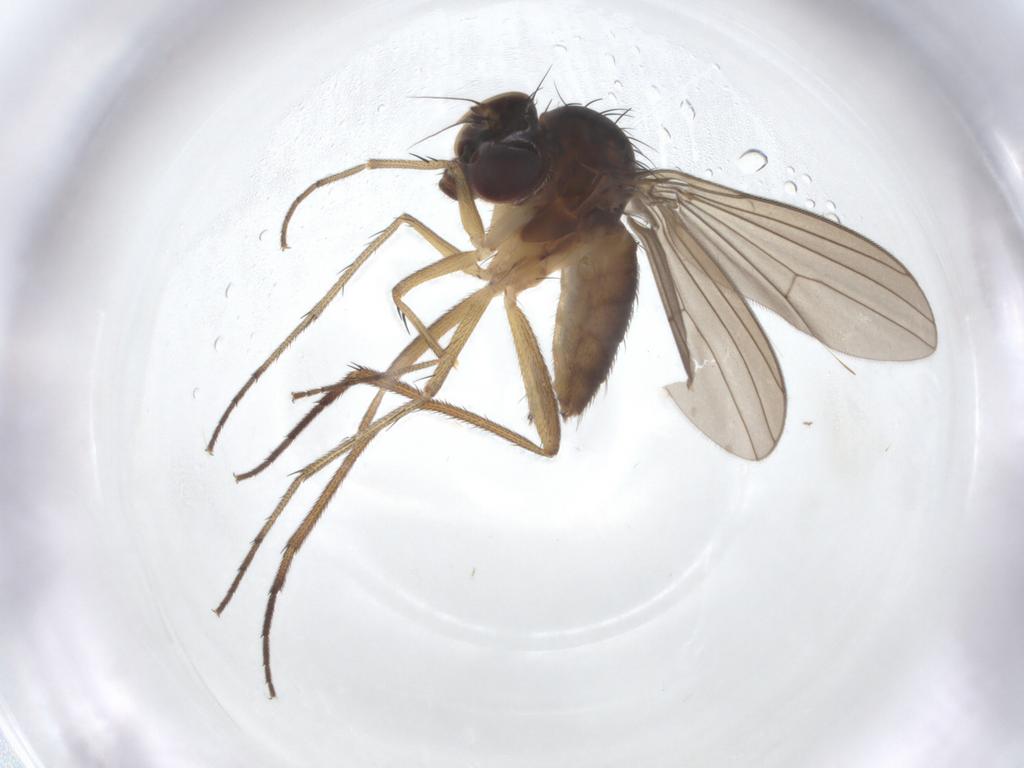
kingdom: Animalia
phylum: Arthropoda
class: Insecta
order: Diptera
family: Dolichopodidae
